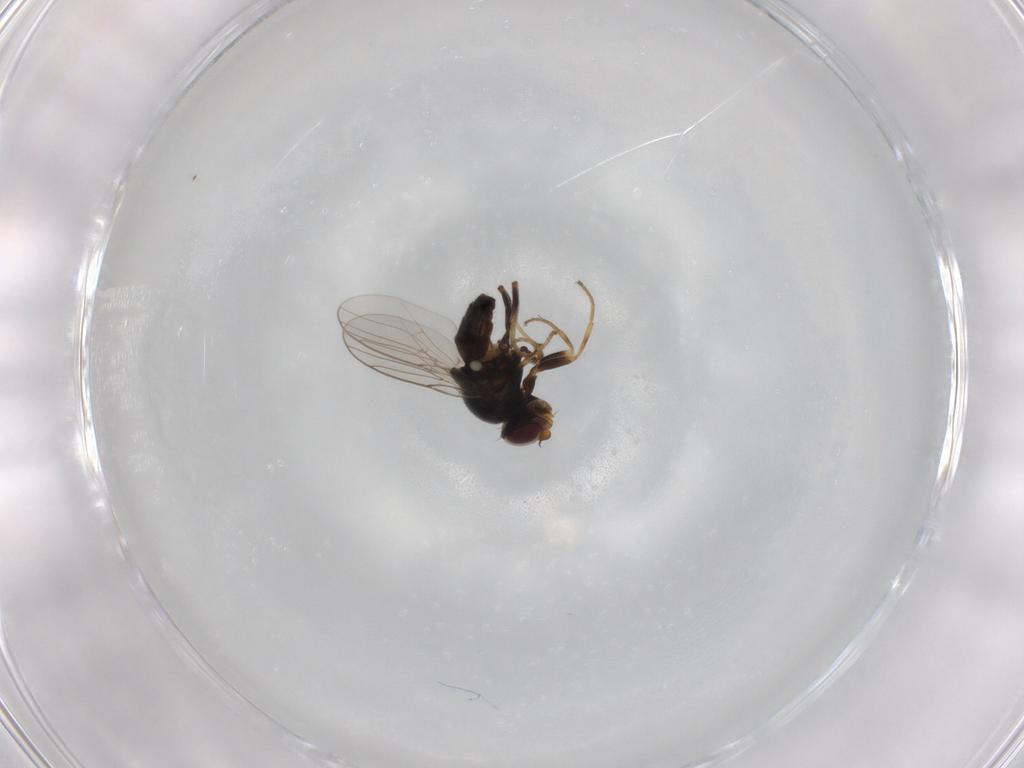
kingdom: Animalia
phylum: Arthropoda
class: Insecta
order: Diptera
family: Chloropidae
